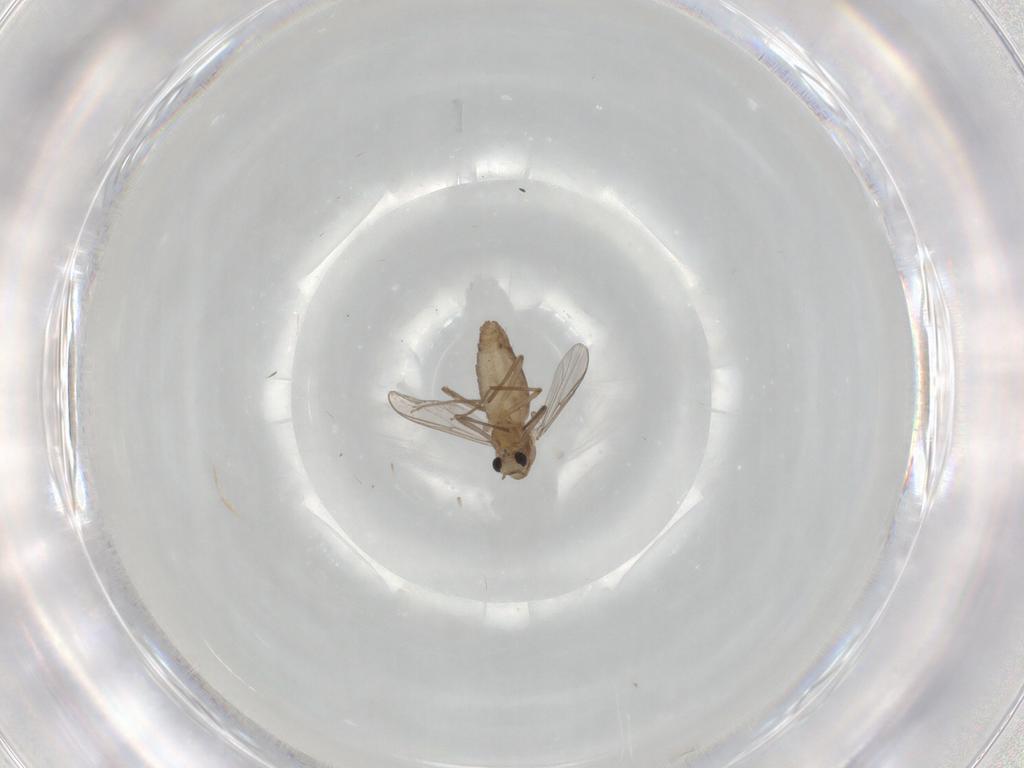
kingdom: Animalia
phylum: Arthropoda
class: Insecta
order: Diptera
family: Chironomidae
